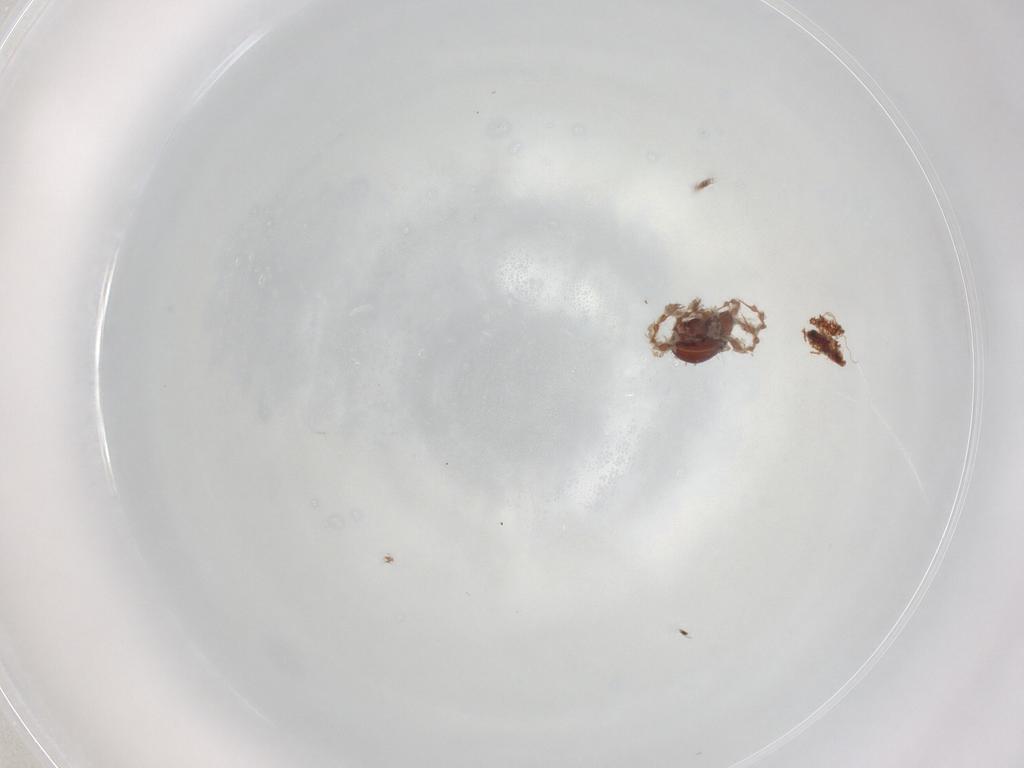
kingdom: Animalia
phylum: Arthropoda
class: Arachnida
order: Sarcoptiformes
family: Damaeidae
